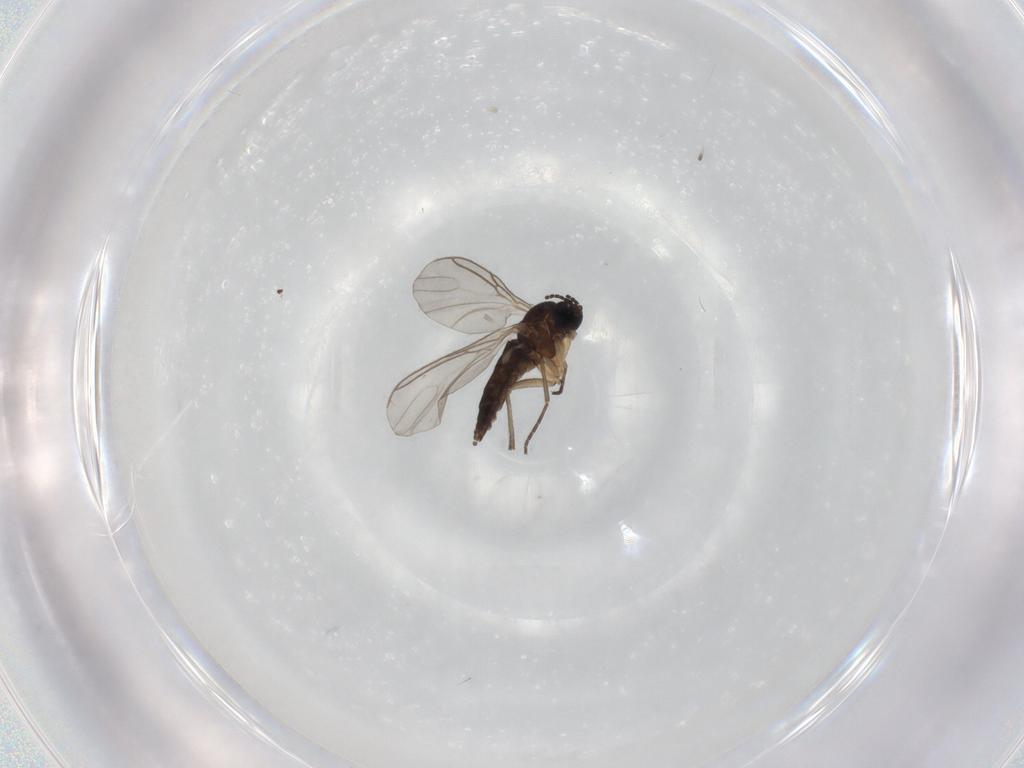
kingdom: Animalia
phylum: Arthropoda
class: Insecta
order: Diptera
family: Sciaridae
